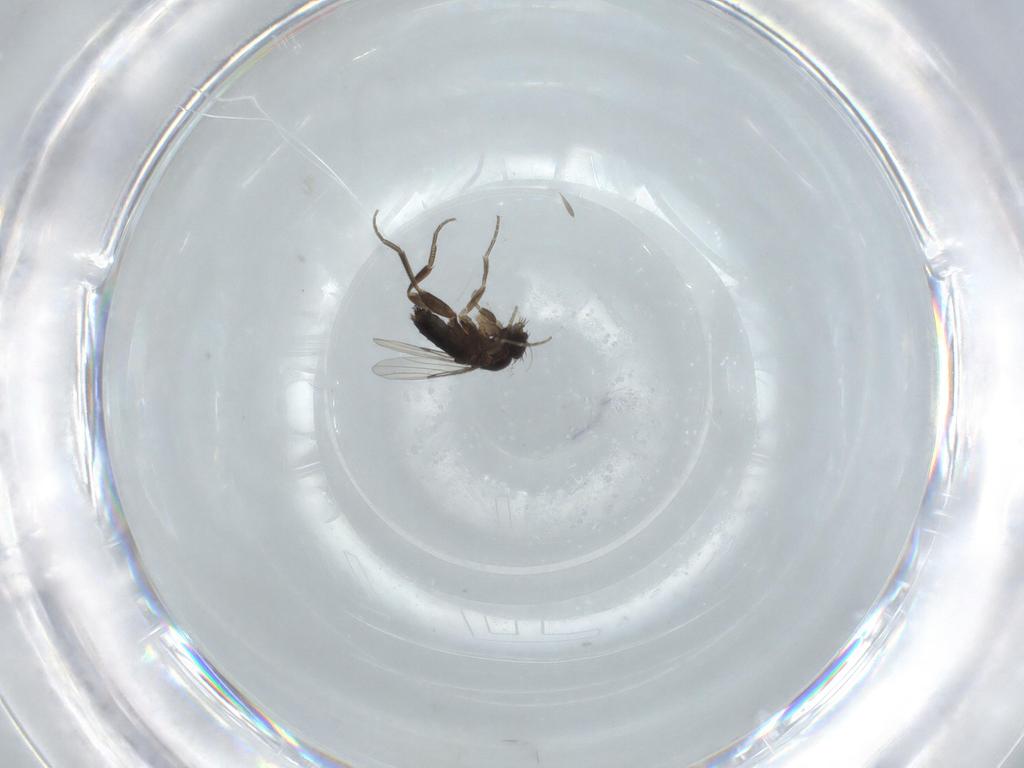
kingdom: Animalia
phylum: Arthropoda
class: Insecta
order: Diptera
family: Phoridae
